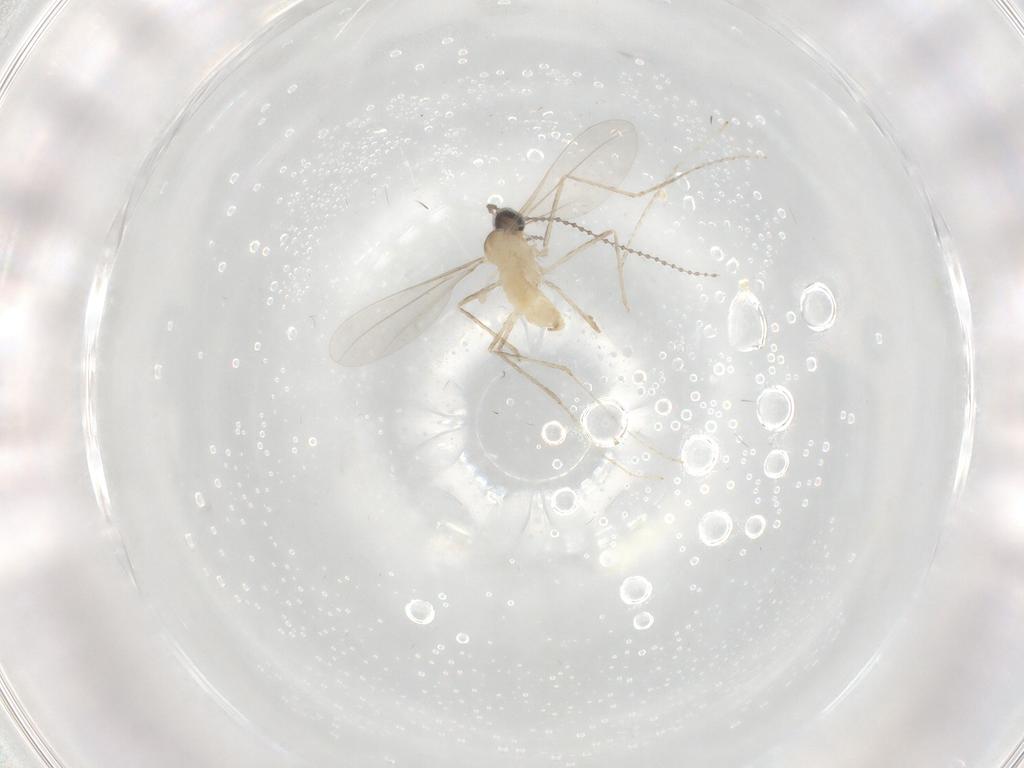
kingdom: Animalia
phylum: Arthropoda
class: Insecta
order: Diptera
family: Cecidomyiidae
